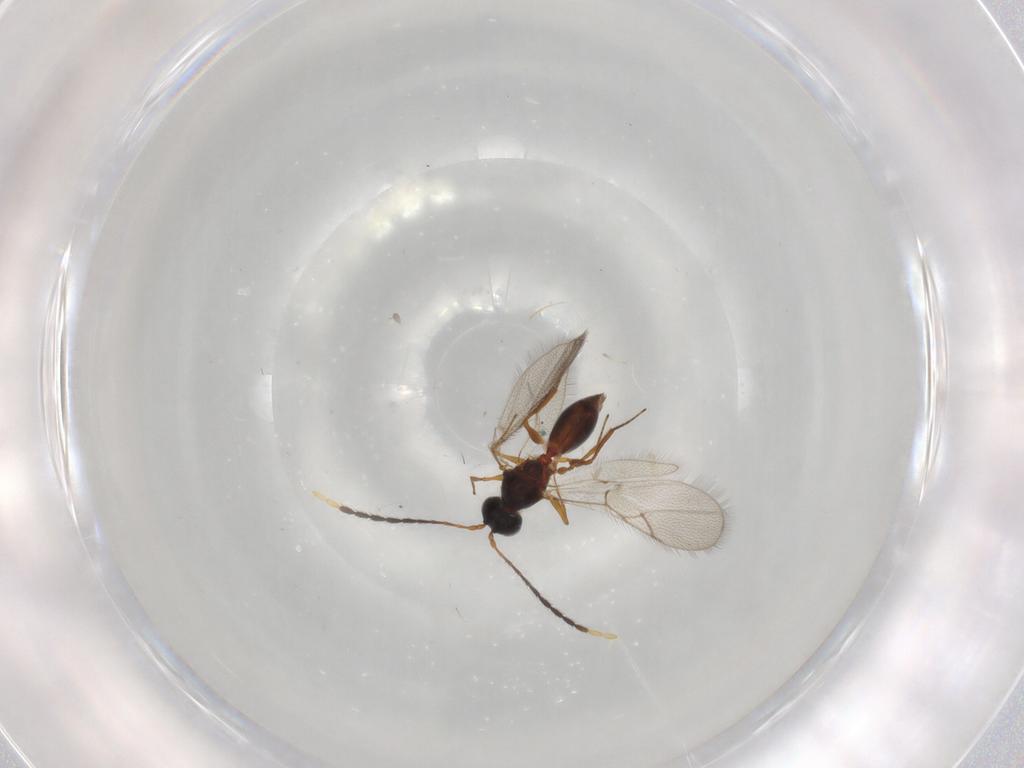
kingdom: Animalia
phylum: Arthropoda
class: Insecta
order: Hymenoptera
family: Figitidae
